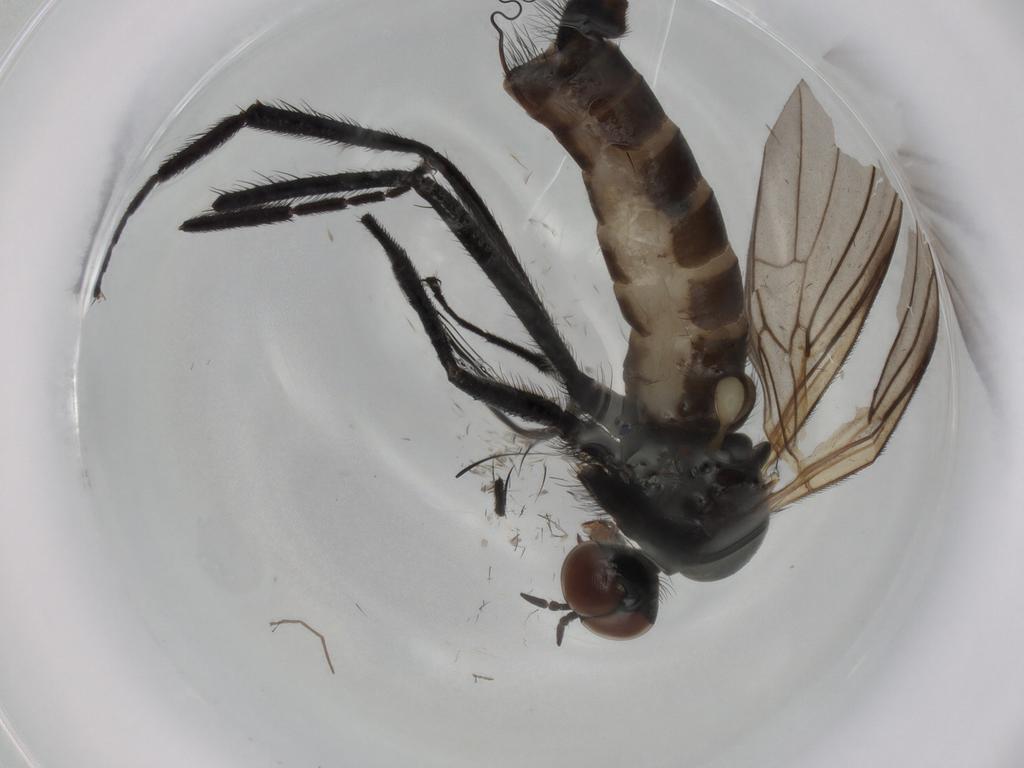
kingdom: Animalia
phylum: Arthropoda
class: Insecta
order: Diptera
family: Empididae
